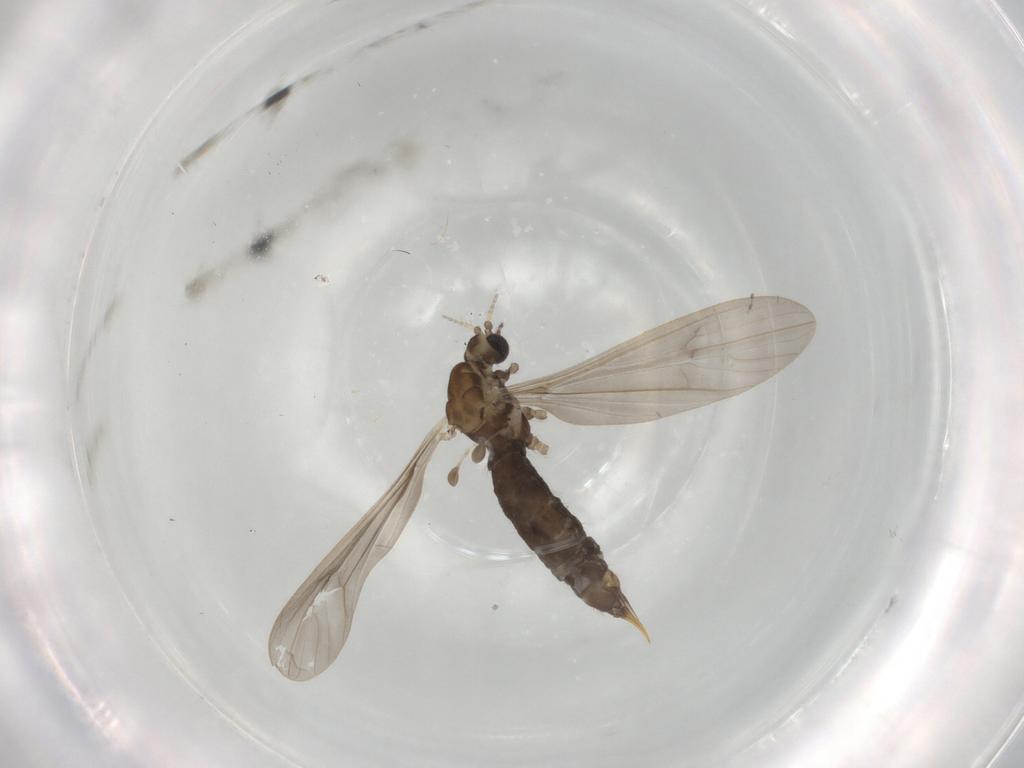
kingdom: Animalia
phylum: Arthropoda
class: Insecta
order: Diptera
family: Limoniidae
